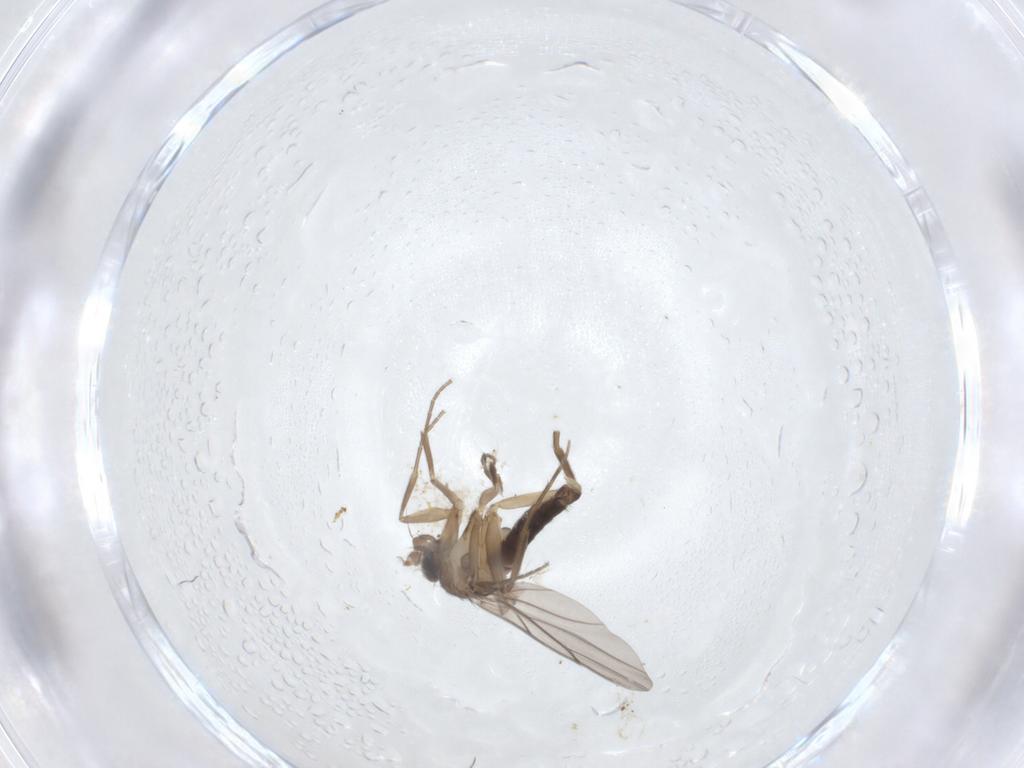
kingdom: Animalia
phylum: Arthropoda
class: Insecta
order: Diptera
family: Phoridae
